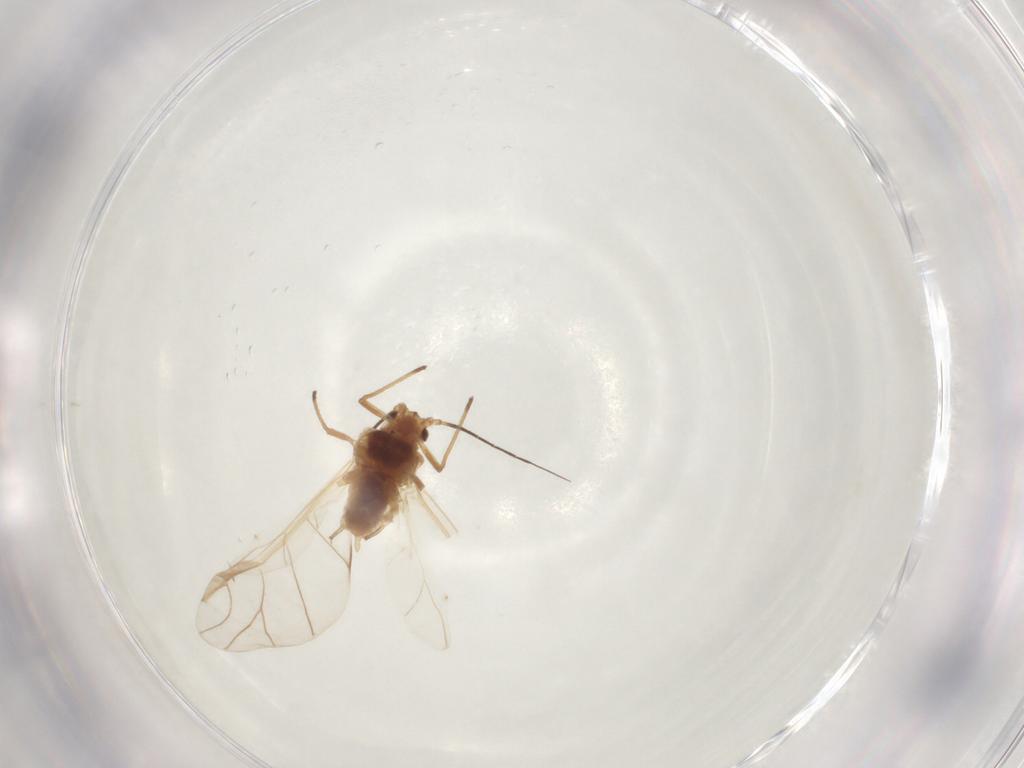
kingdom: Animalia
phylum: Arthropoda
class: Insecta
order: Hemiptera
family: Aphididae
